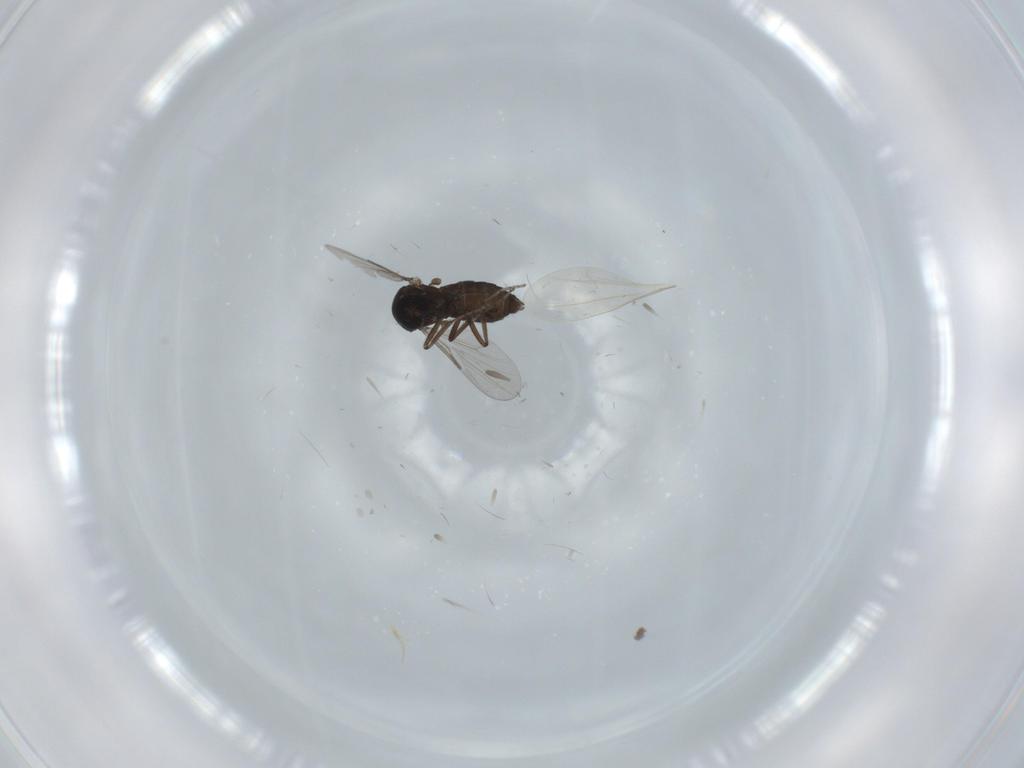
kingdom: Animalia
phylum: Arthropoda
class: Insecta
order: Diptera
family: Ceratopogonidae
